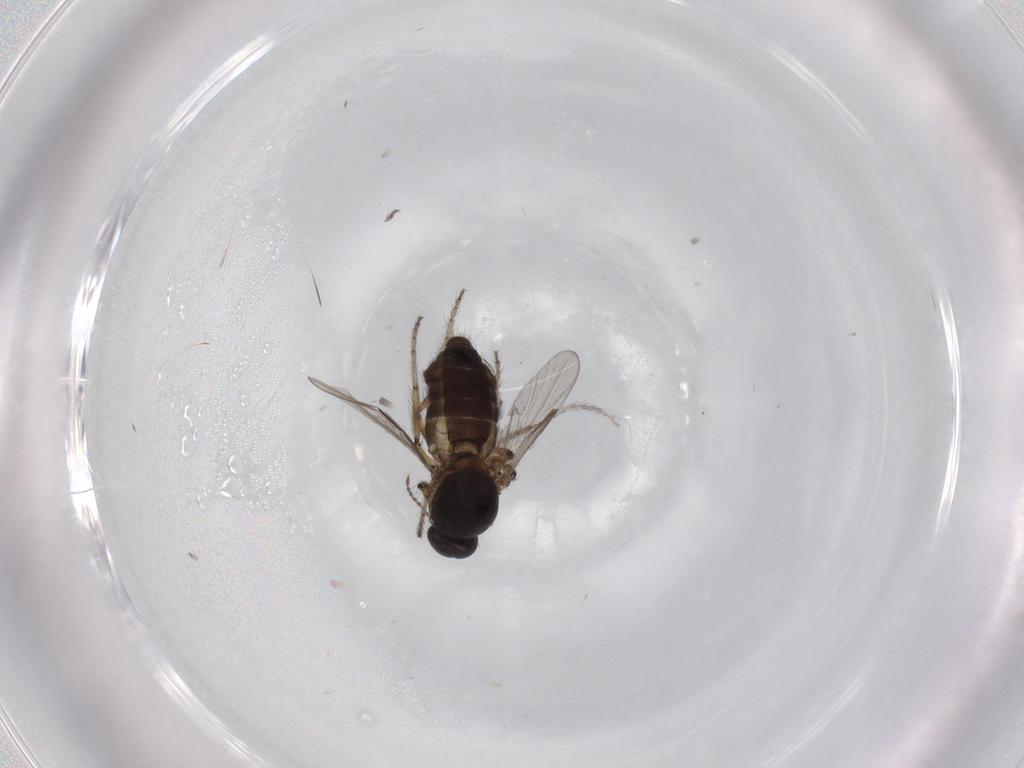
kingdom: Animalia
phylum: Arthropoda
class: Insecta
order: Diptera
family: Psychodidae
